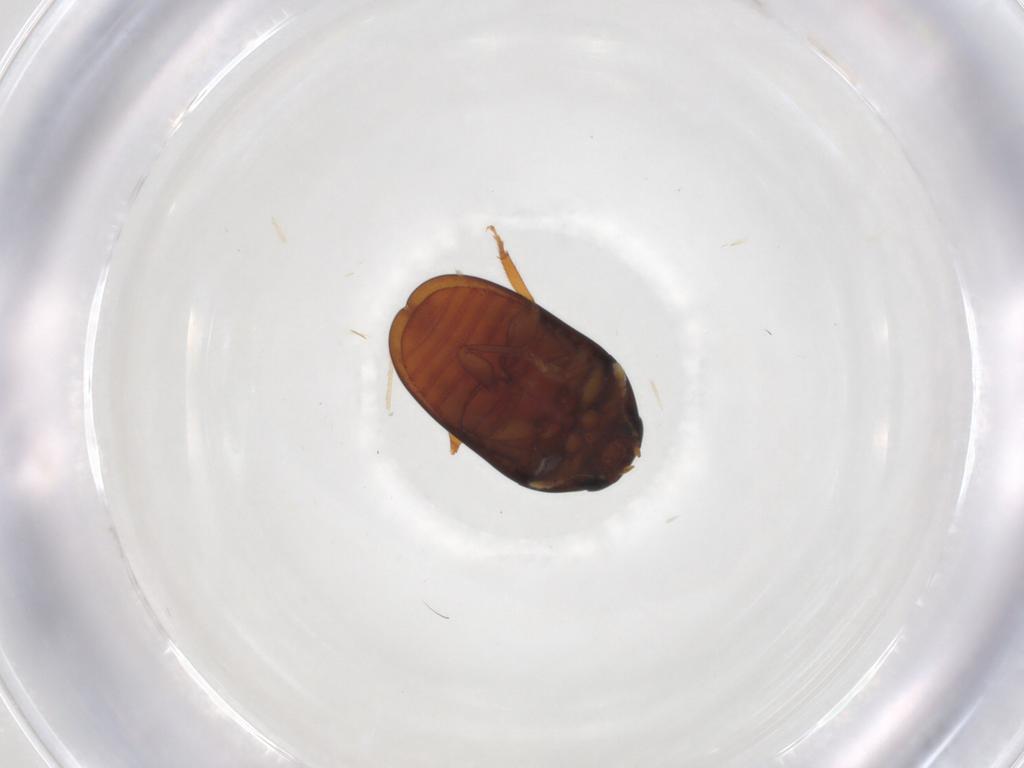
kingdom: Animalia
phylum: Arthropoda
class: Insecta
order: Coleoptera
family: Phalacridae
